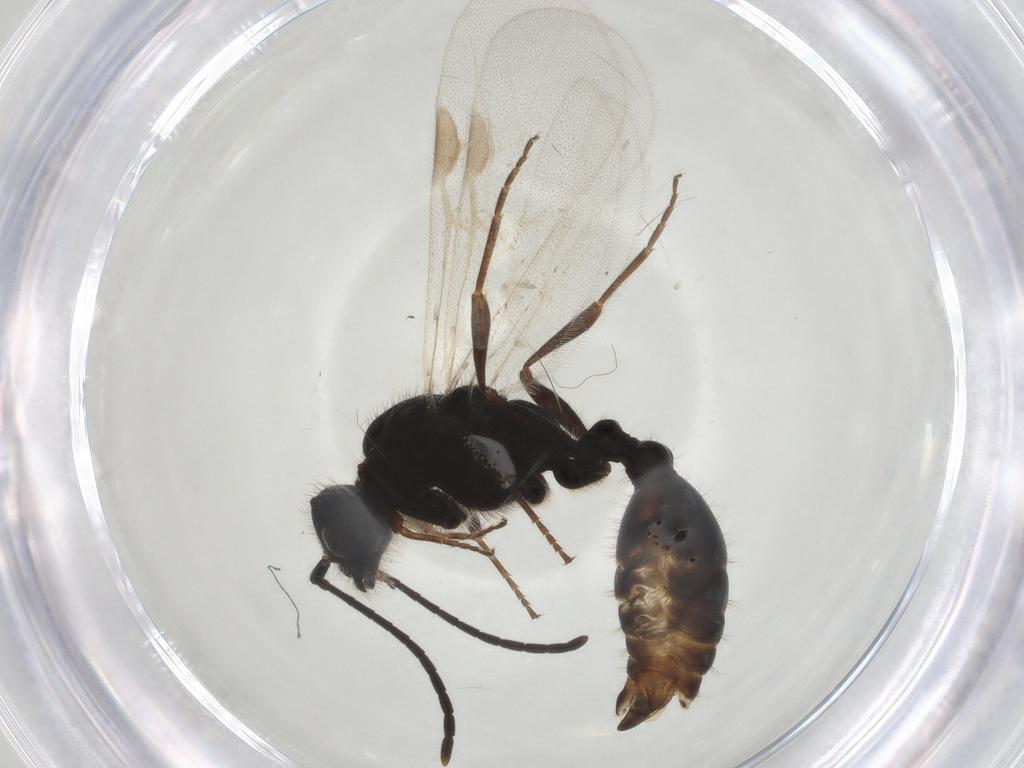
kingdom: Animalia
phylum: Arthropoda
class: Insecta
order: Hymenoptera
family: Formicidae
